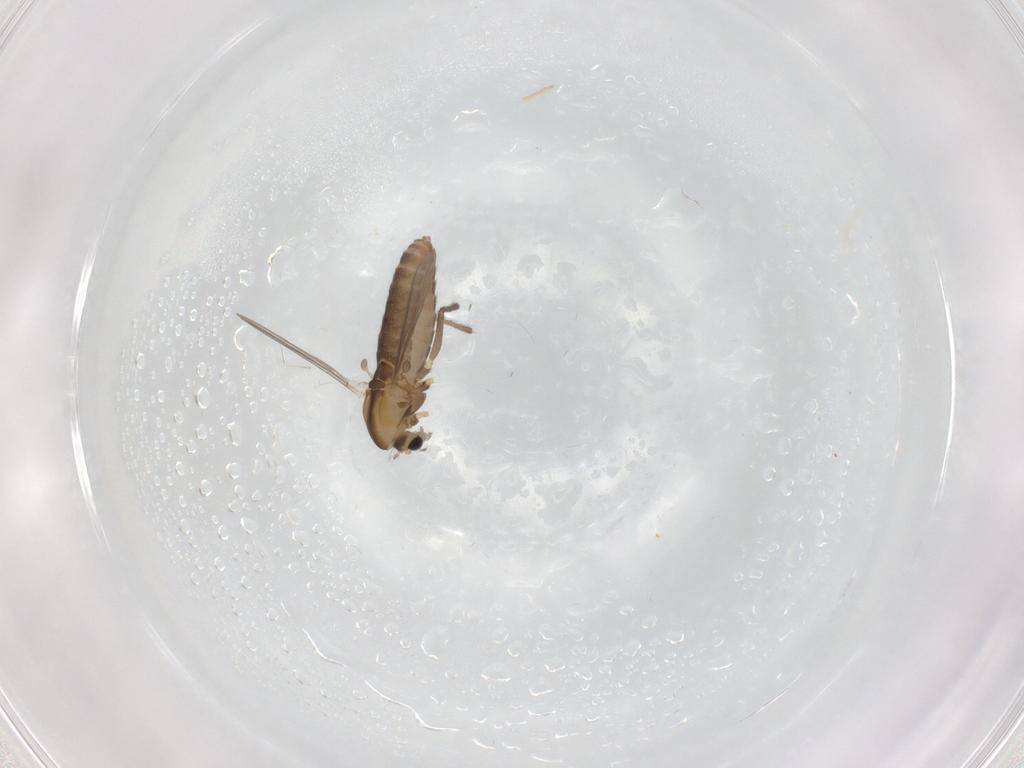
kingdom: Animalia
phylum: Arthropoda
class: Insecta
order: Diptera
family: Chironomidae
